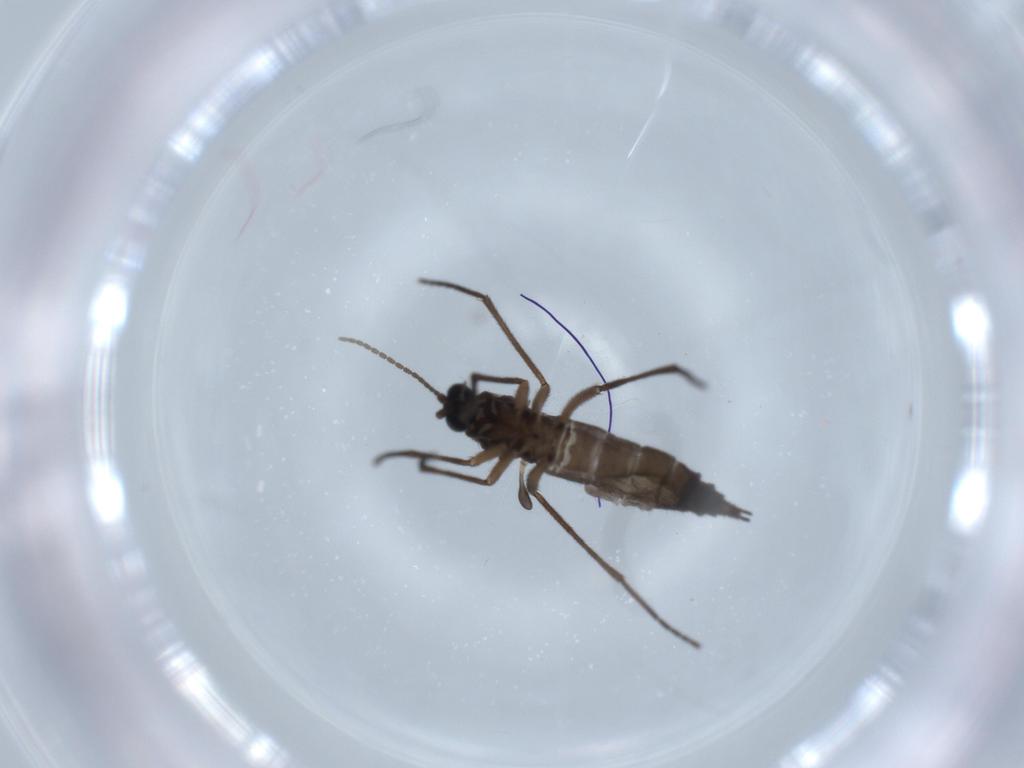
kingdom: Animalia
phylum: Arthropoda
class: Insecta
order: Diptera
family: Sciaridae
